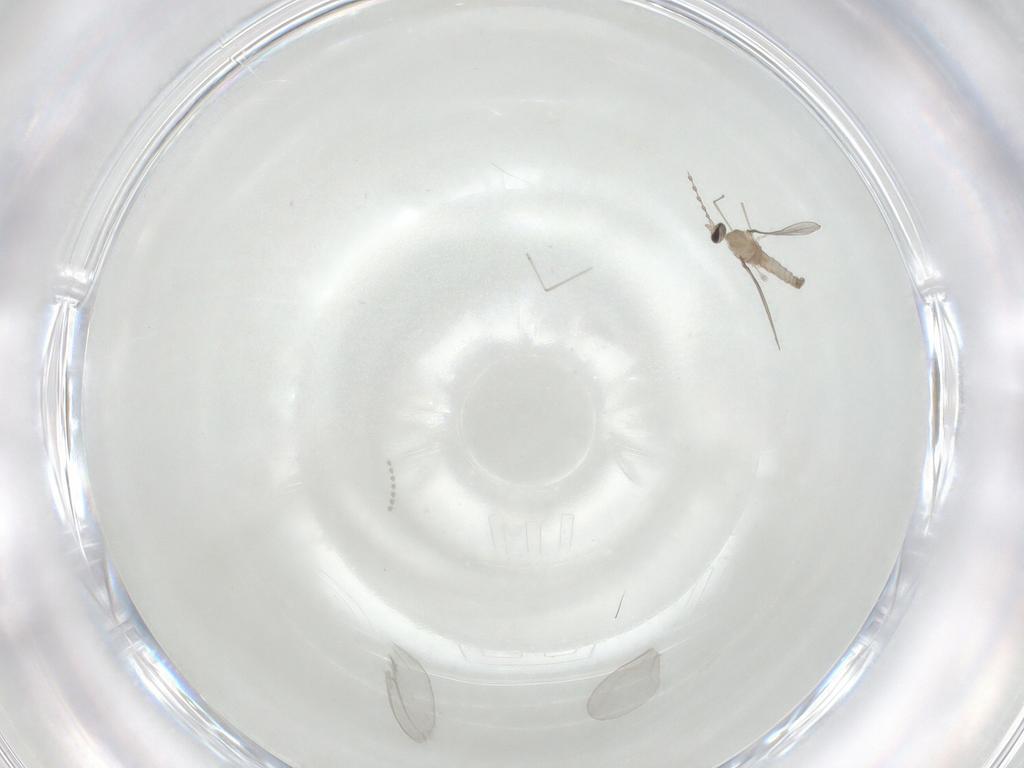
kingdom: Animalia
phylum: Arthropoda
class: Insecta
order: Diptera
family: Cecidomyiidae
